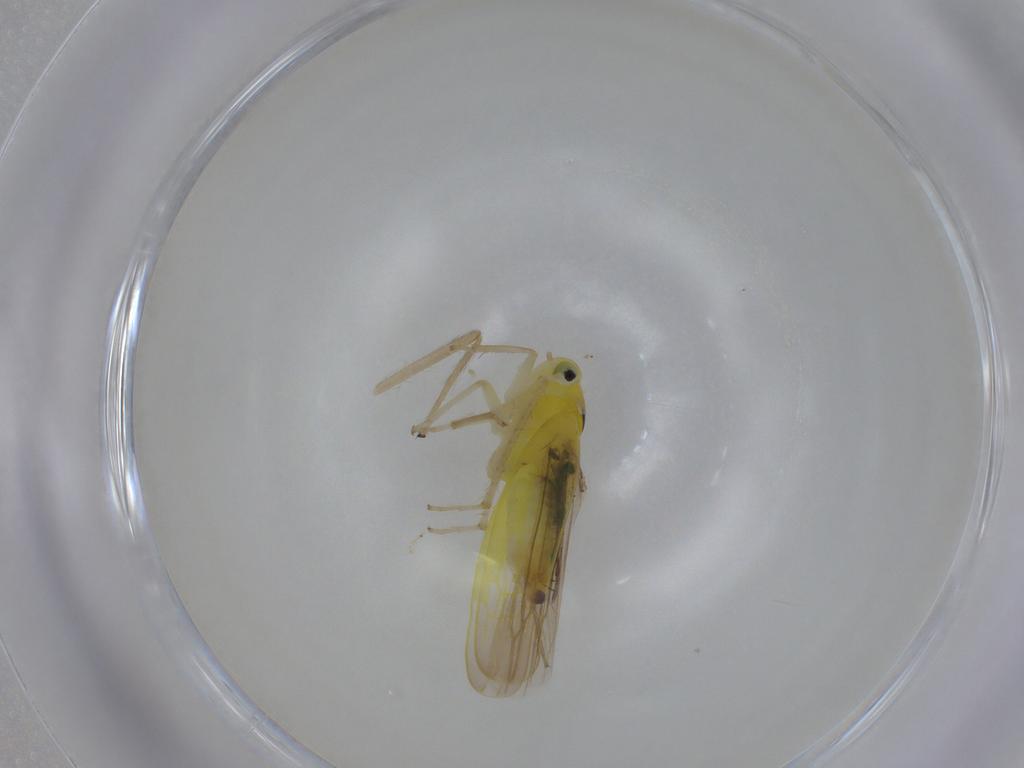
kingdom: Animalia
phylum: Arthropoda
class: Insecta
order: Hemiptera
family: Cicadellidae
